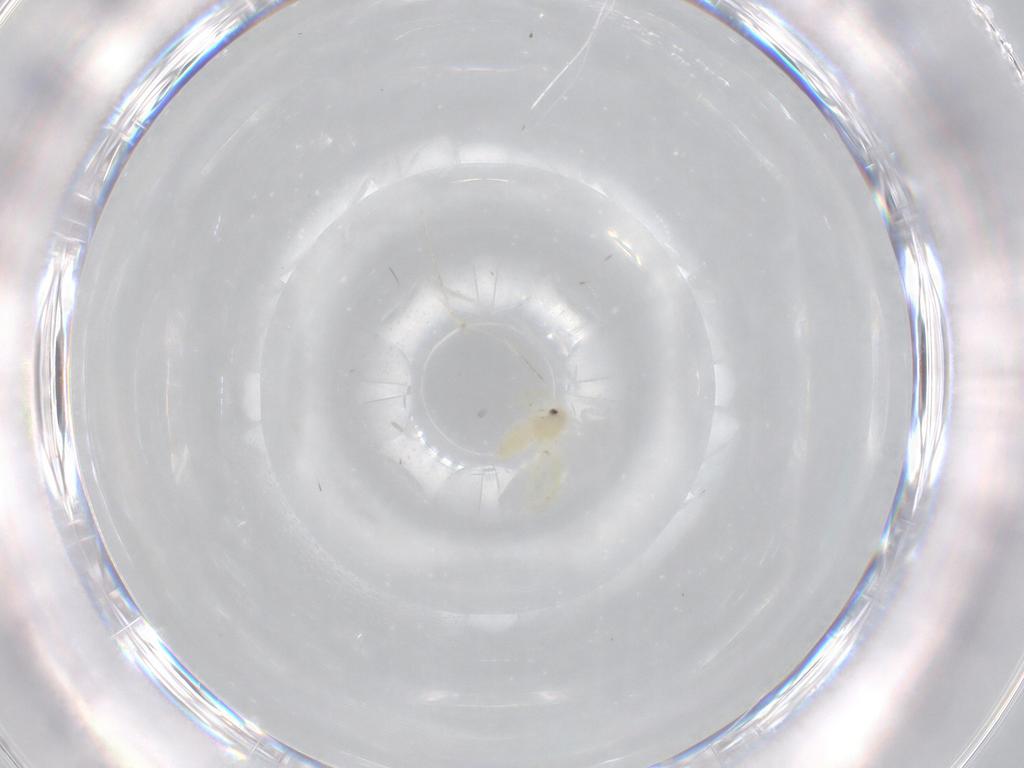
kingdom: Animalia
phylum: Arthropoda
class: Insecta
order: Hemiptera
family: Aleyrodidae
